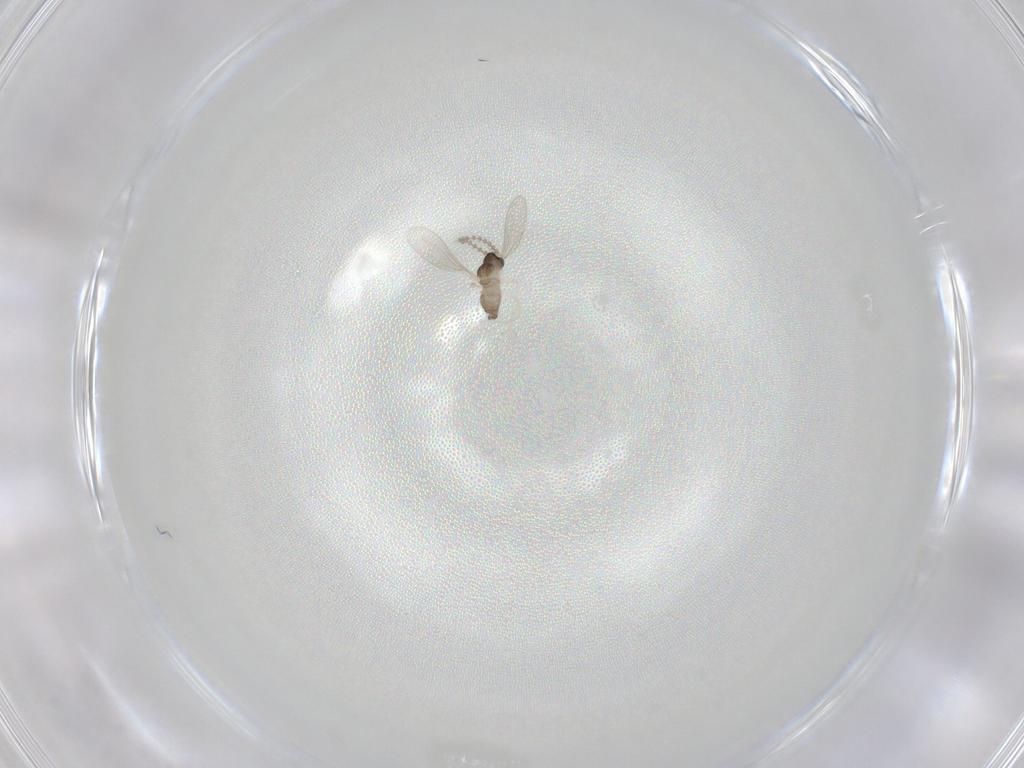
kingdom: Animalia
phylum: Arthropoda
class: Insecta
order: Diptera
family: Cecidomyiidae
